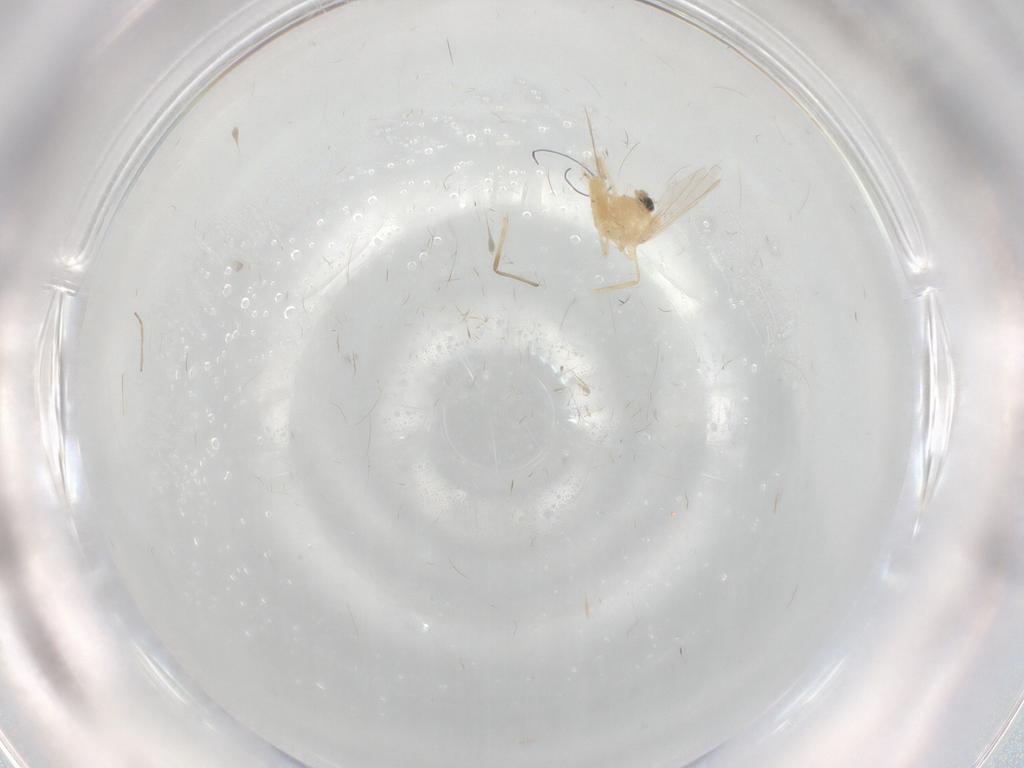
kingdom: Animalia
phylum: Arthropoda
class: Insecta
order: Diptera
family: Chironomidae
